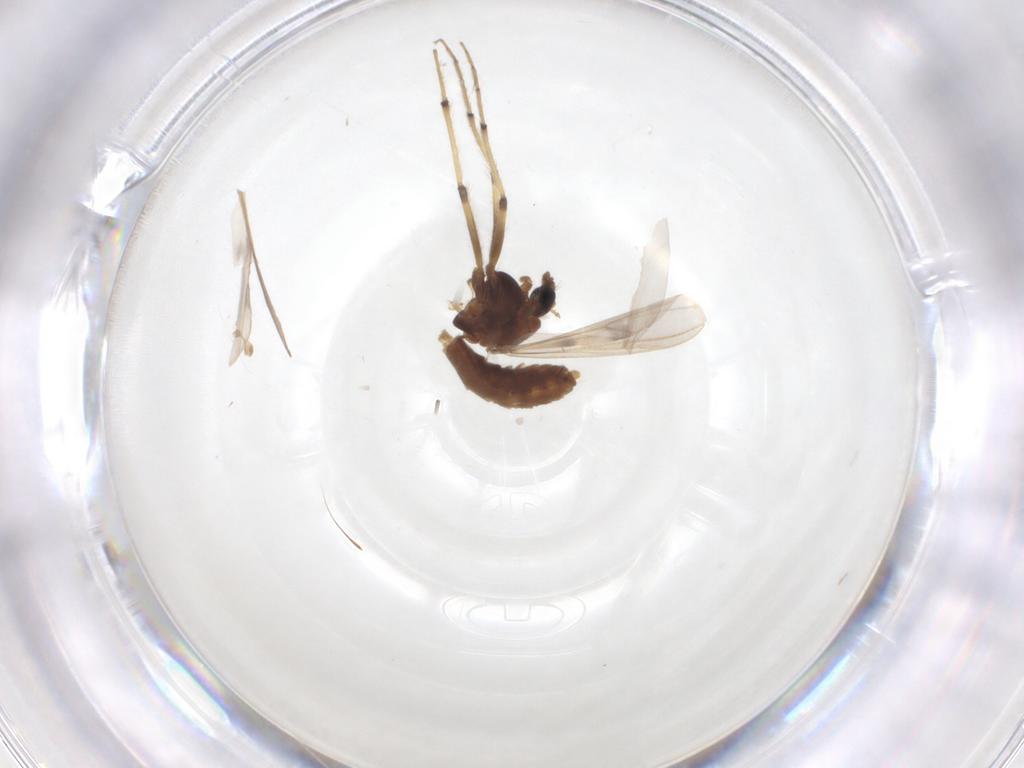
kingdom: Animalia
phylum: Arthropoda
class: Insecta
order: Diptera
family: Chironomidae
